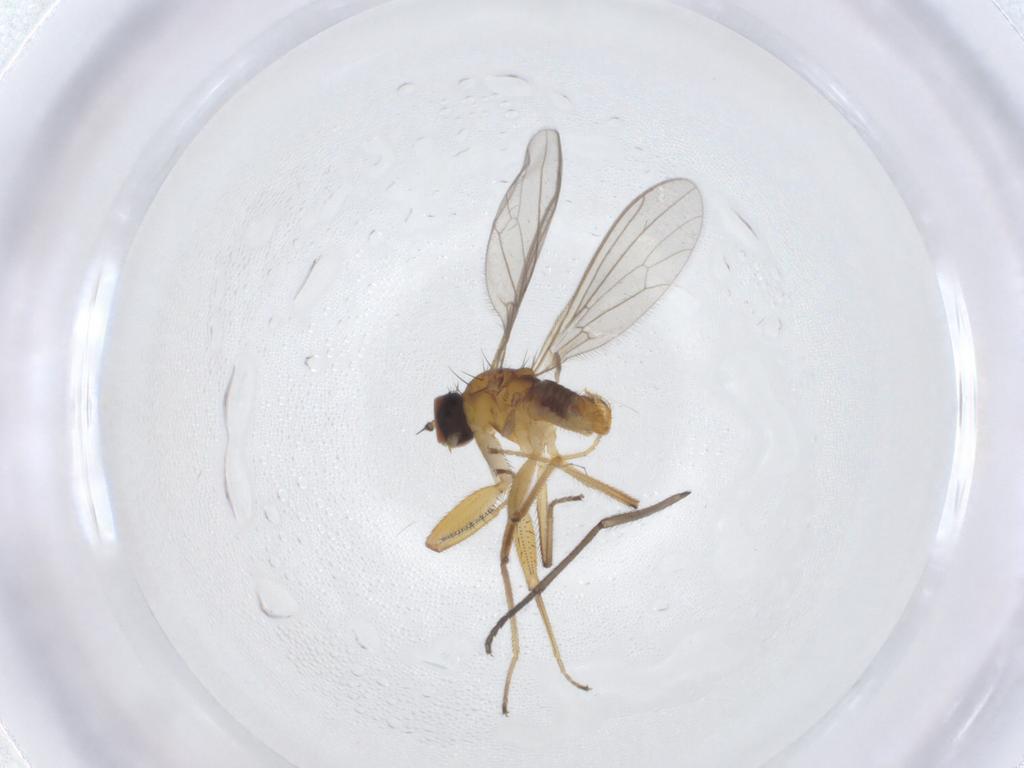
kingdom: Animalia
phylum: Arthropoda
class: Insecta
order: Diptera
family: Empididae
